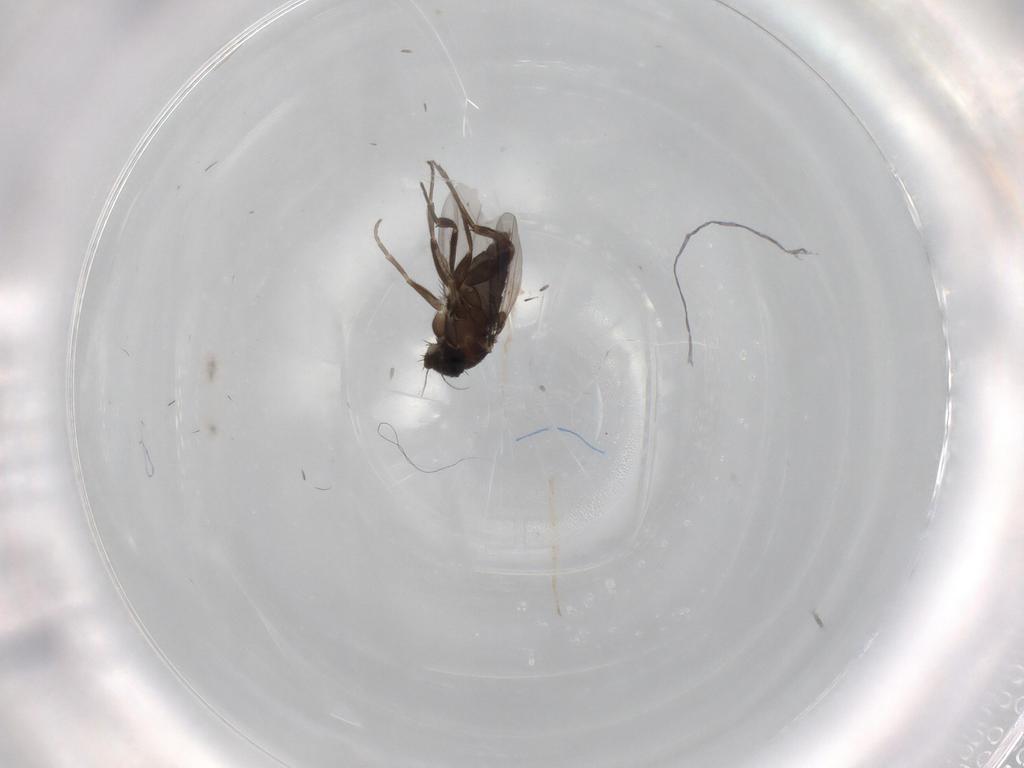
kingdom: Animalia
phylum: Arthropoda
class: Insecta
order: Diptera
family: Phoridae
